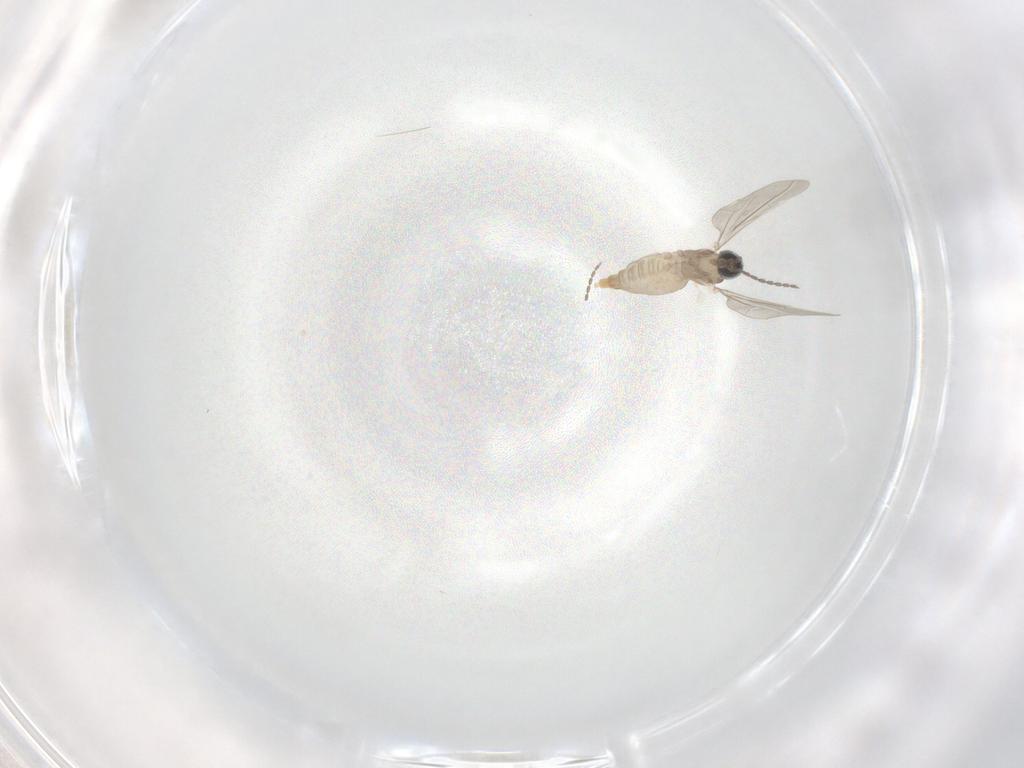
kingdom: Animalia
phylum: Arthropoda
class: Insecta
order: Diptera
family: Cecidomyiidae
